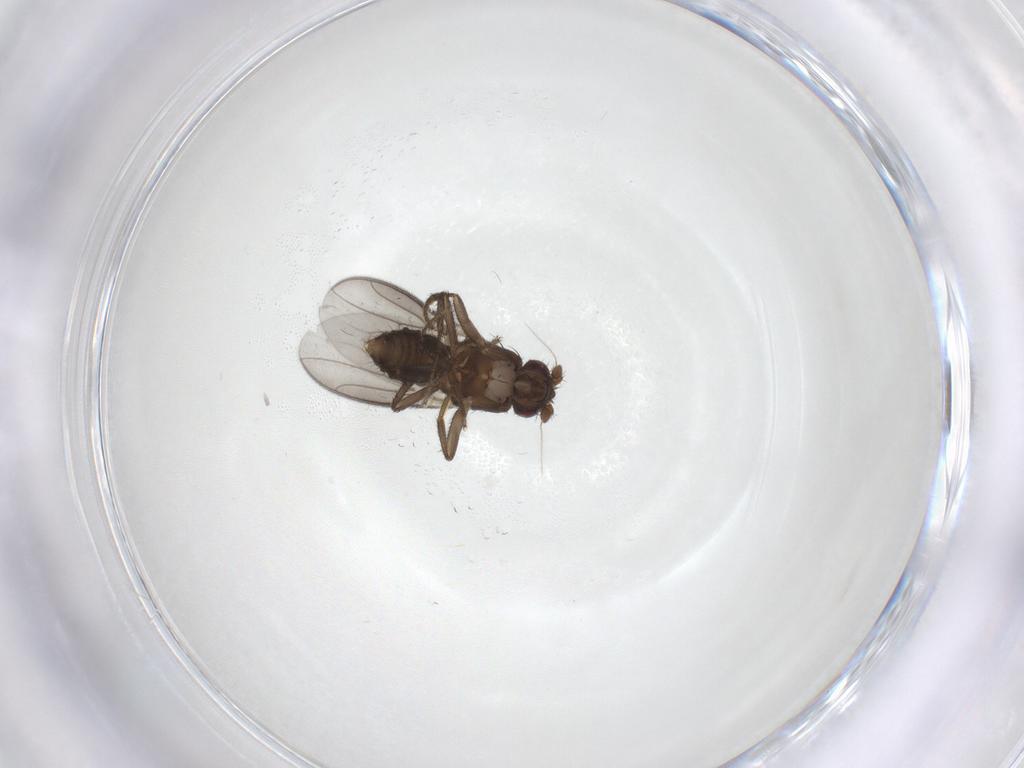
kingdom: Animalia
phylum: Arthropoda
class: Insecta
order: Diptera
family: Sphaeroceridae
